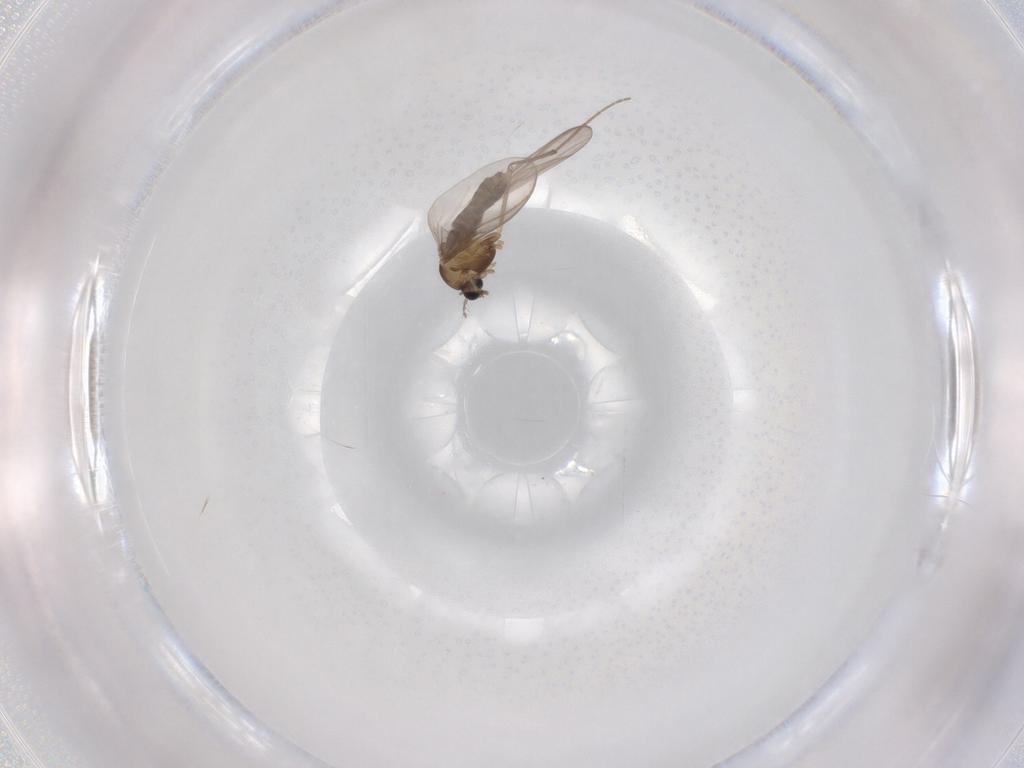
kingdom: Animalia
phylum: Arthropoda
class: Insecta
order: Diptera
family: Chironomidae
